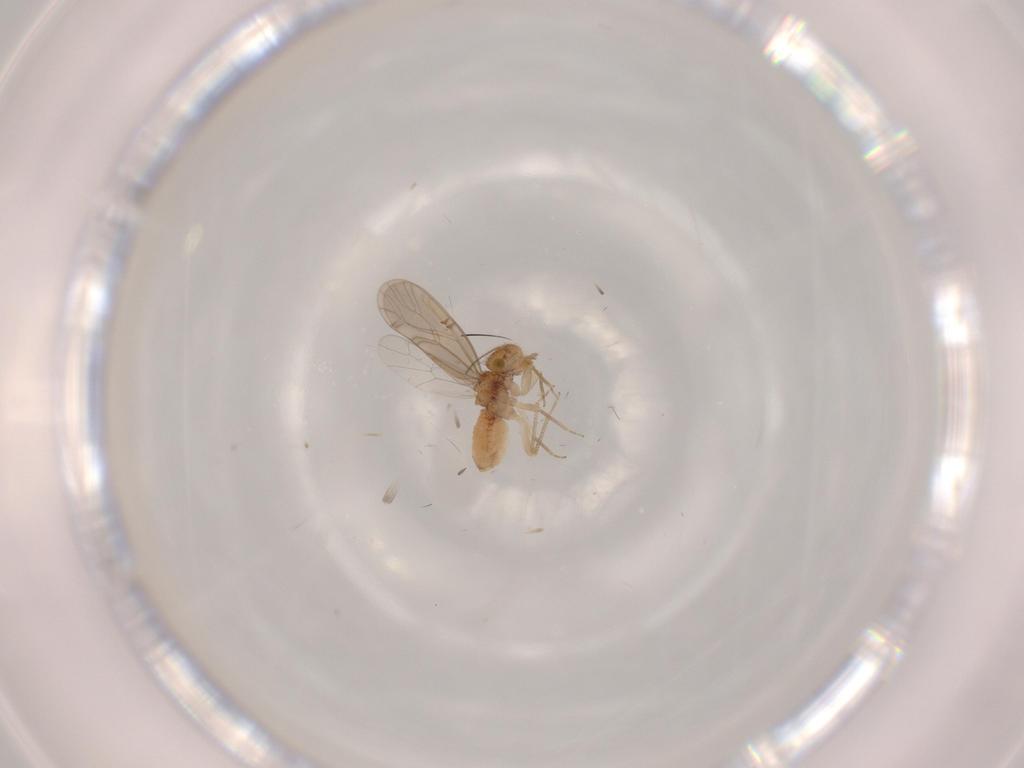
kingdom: Animalia
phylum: Arthropoda
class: Insecta
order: Psocodea
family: Ectopsocidae
